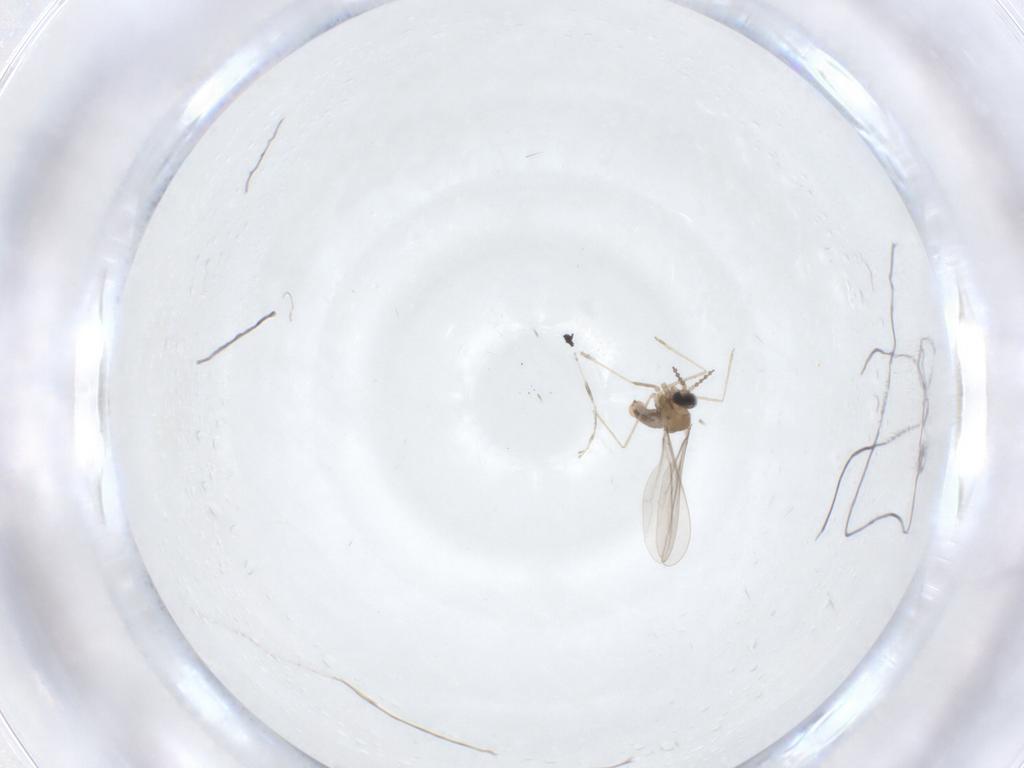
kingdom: Animalia
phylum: Arthropoda
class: Insecta
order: Diptera
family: Cecidomyiidae
